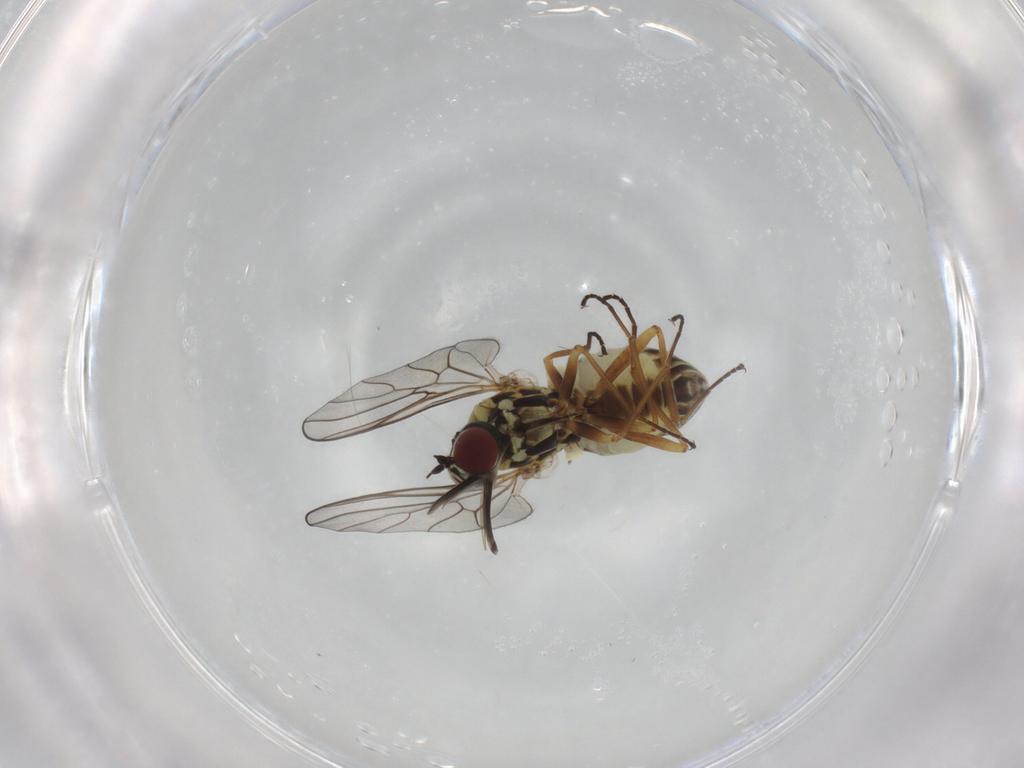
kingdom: Animalia
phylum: Arthropoda
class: Insecta
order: Diptera
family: Bombyliidae
